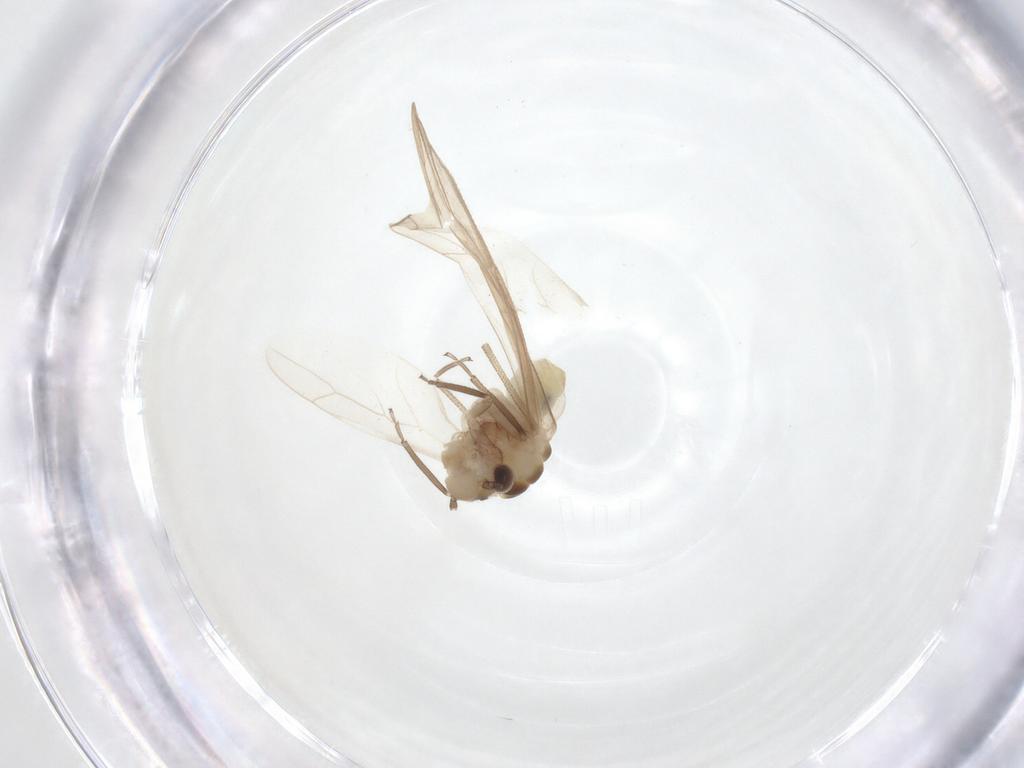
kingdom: Animalia
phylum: Arthropoda
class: Insecta
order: Psocodea
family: Caeciliusidae
